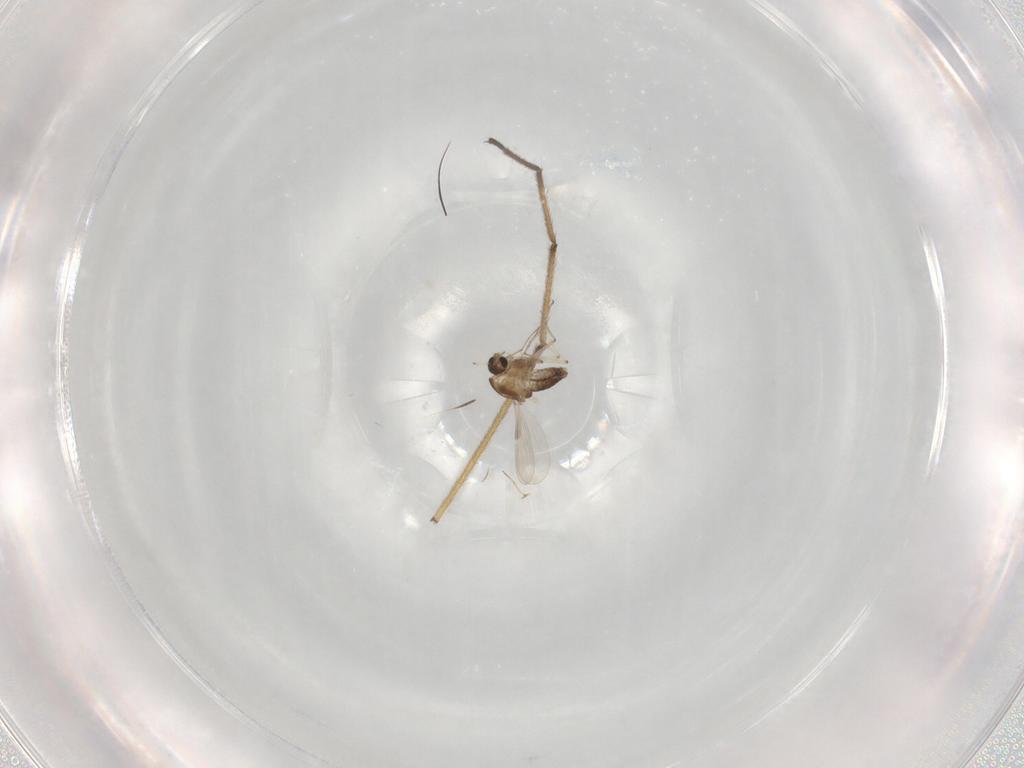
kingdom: Animalia
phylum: Arthropoda
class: Insecta
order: Diptera
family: Chironomidae
